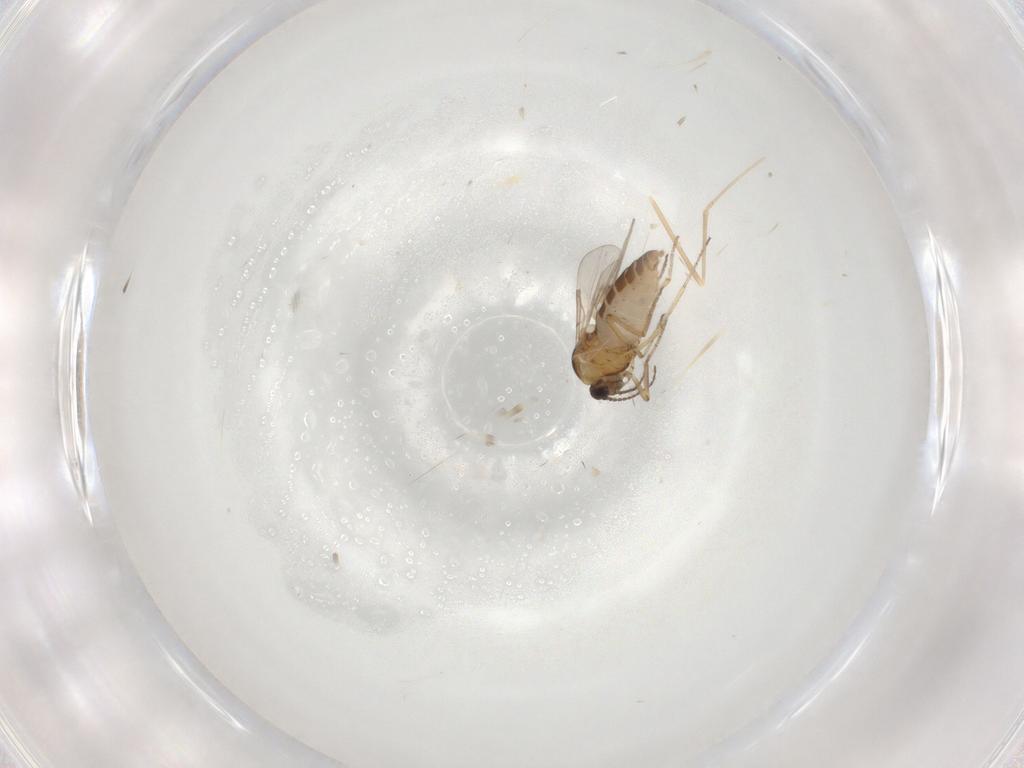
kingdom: Animalia
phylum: Arthropoda
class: Insecta
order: Diptera
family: Ceratopogonidae
